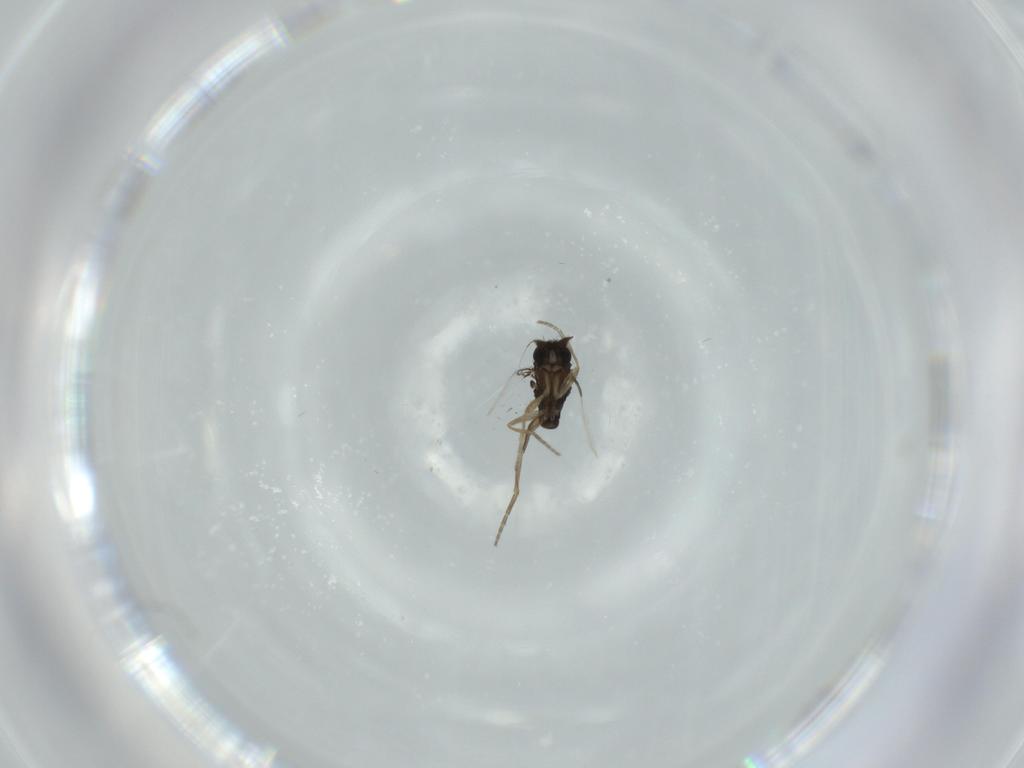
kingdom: Animalia
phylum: Arthropoda
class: Insecta
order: Diptera
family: Phoridae
